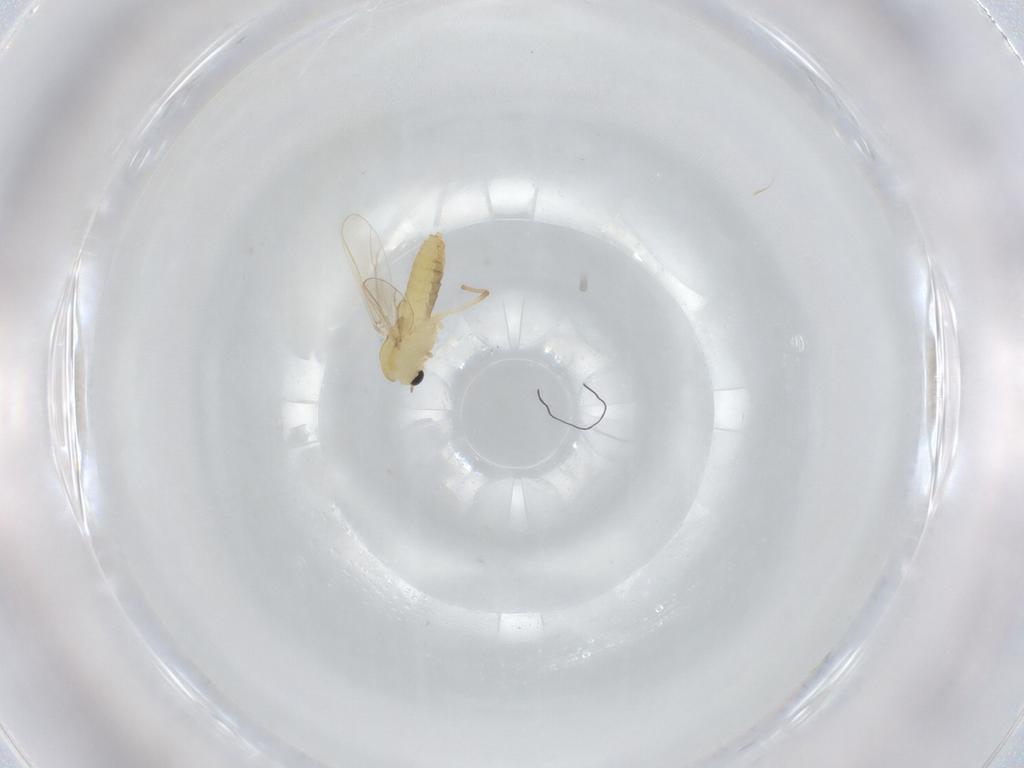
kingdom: Animalia
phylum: Arthropoda
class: Insecta
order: Diptera
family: Chironomidae
